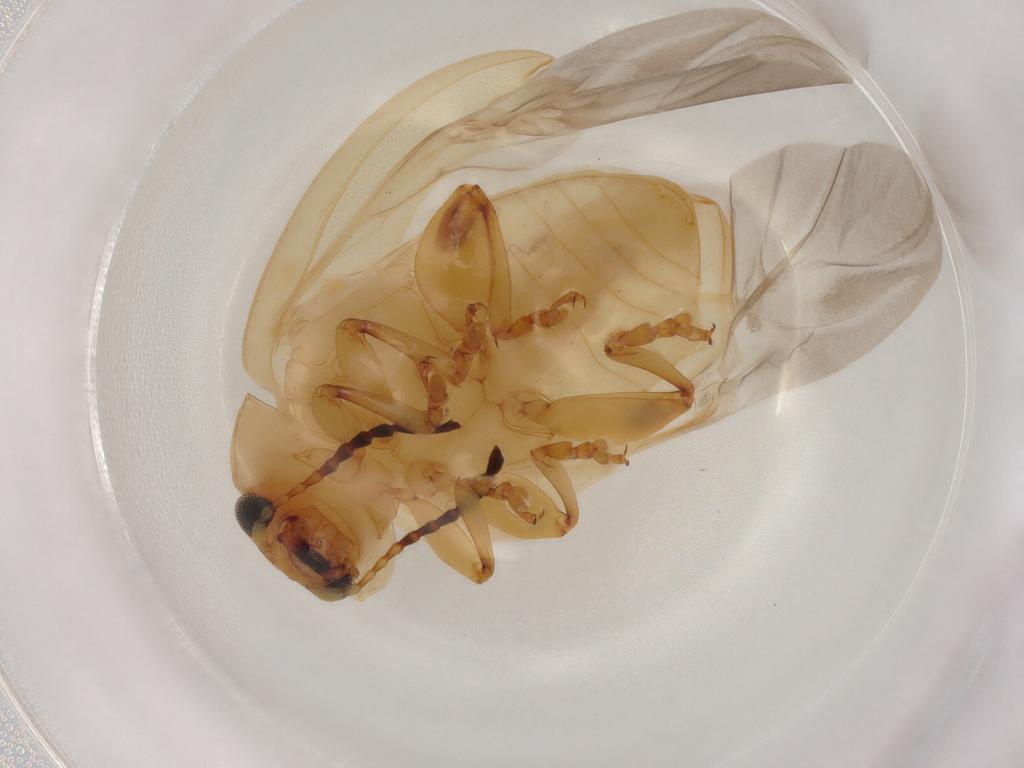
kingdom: Animalia
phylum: Arthropoda
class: Insecta
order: Coleoptera
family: Chrysomelidae
